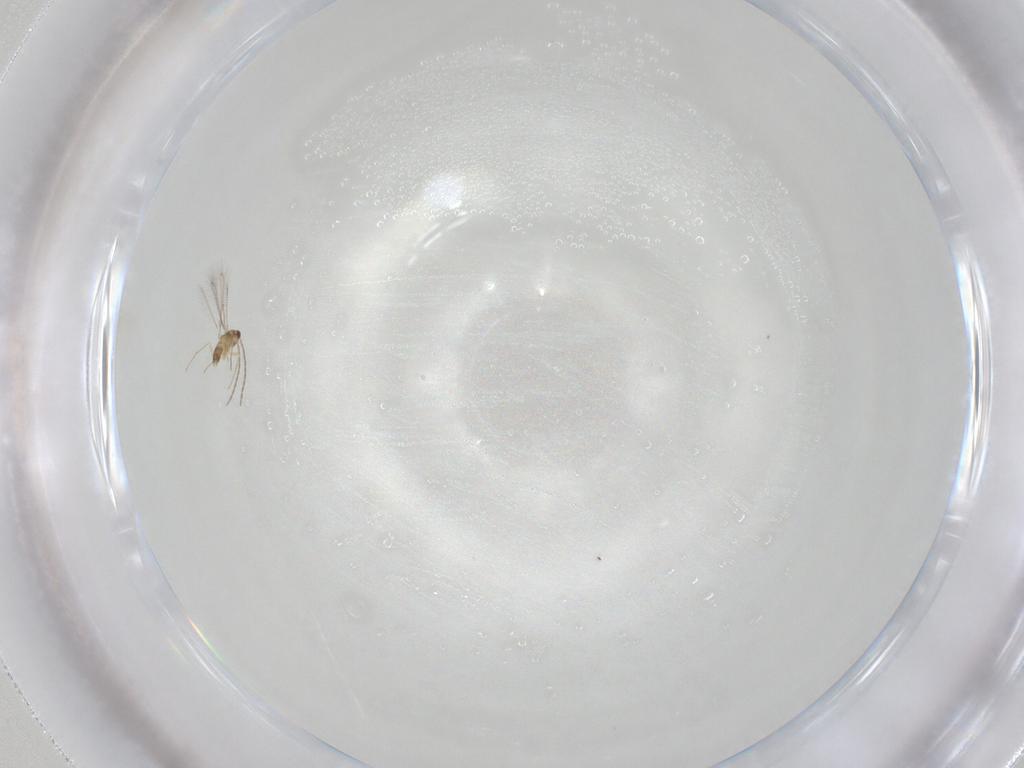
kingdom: Animalia
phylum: Arthropoda
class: Insecta
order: Hymenoptera
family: Mymaridae
